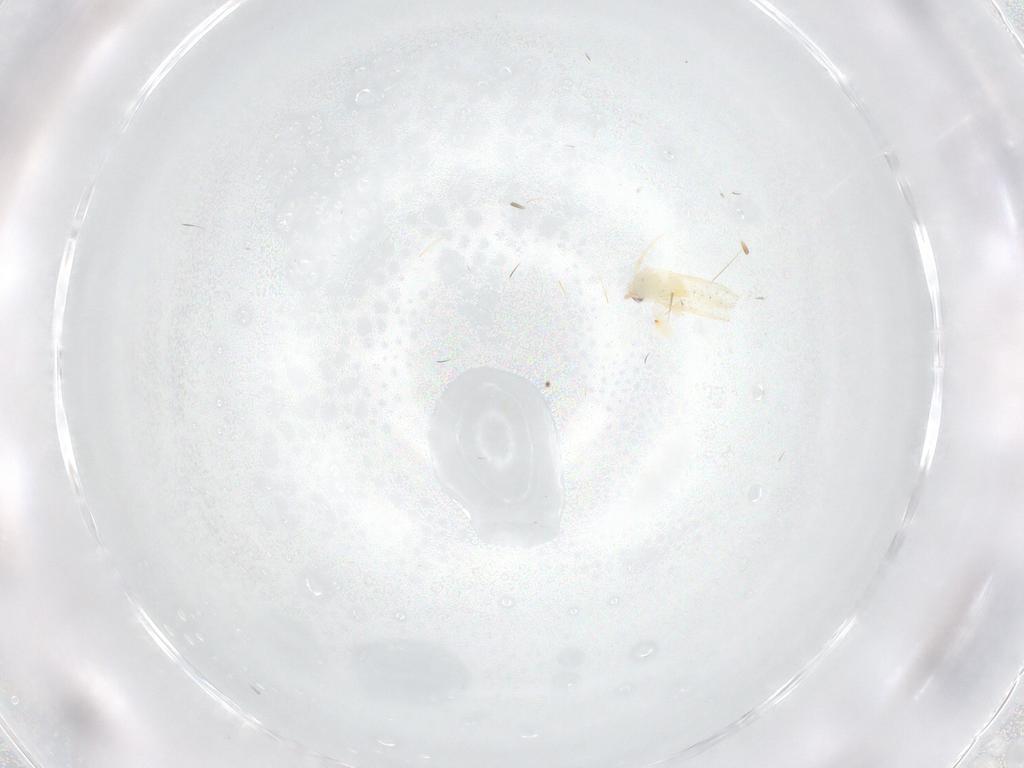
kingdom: Animalia
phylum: Arthropoda
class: Insecta
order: Hemiptera
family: Aleyrodidae
